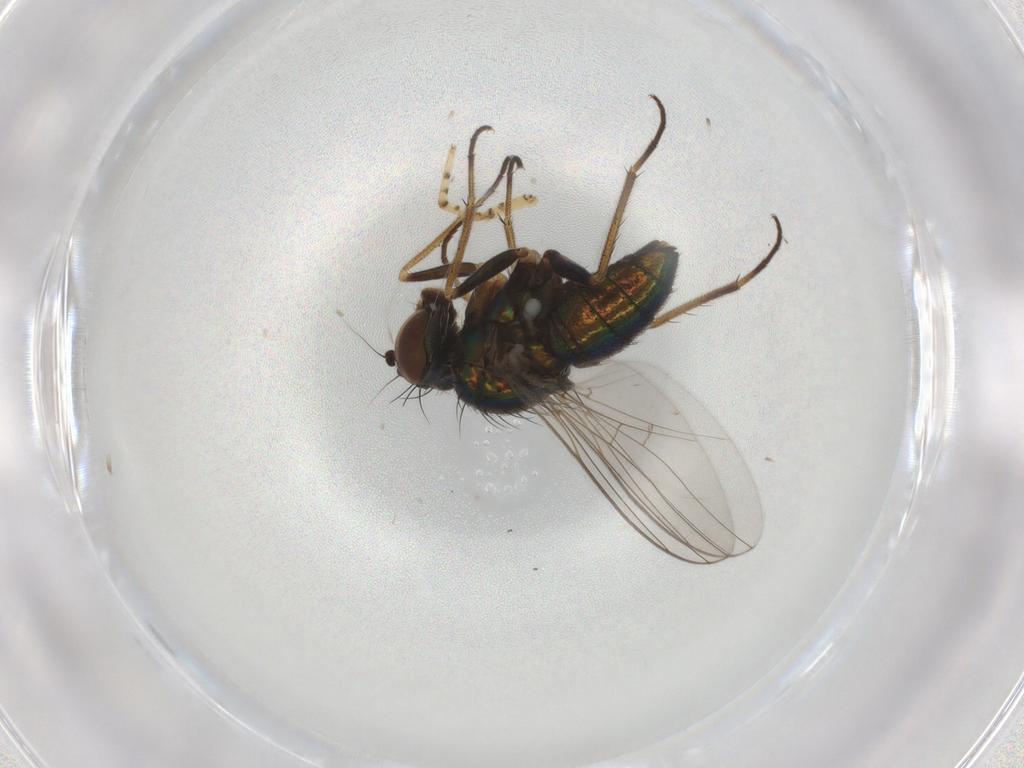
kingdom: Animalia
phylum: Arthropoda
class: Insecta
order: Diptera
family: Dolichopodidae
